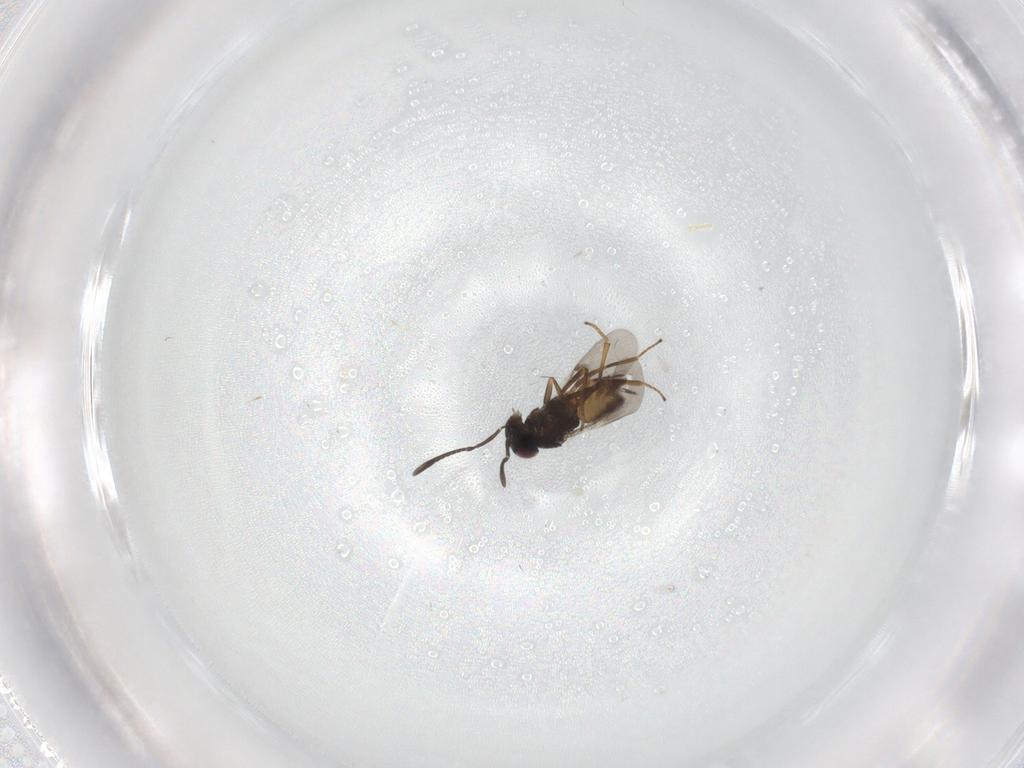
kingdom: Animalia
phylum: Arthropoda
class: Insecta
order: Hymenoptera
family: Encyrtidae
